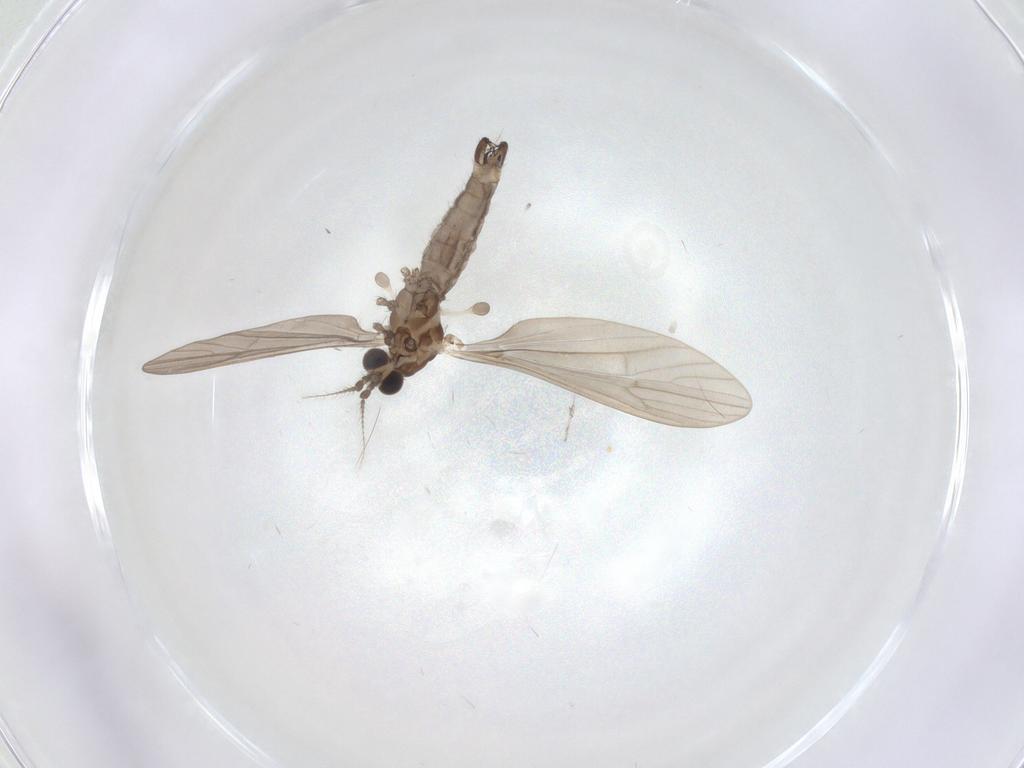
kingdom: Animalia
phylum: Arthropoda
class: Insecta
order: Diptera
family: Limoniidae
